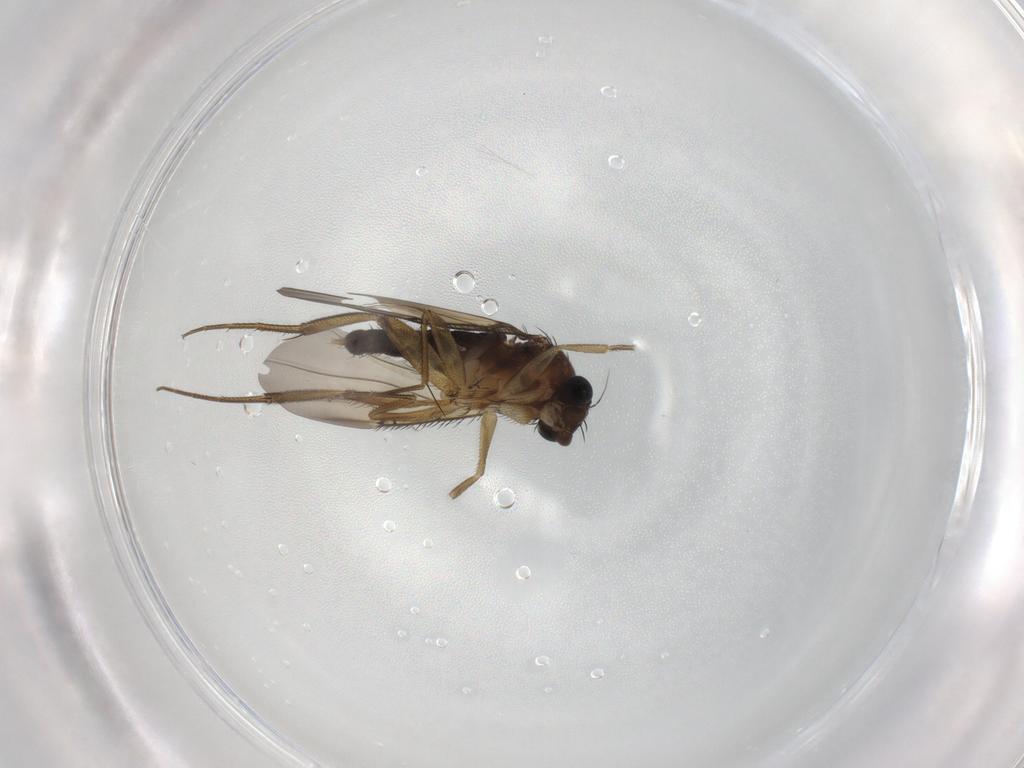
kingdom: Animalia
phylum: Arthropoda
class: Insecta
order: Diptera
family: Phoridae
